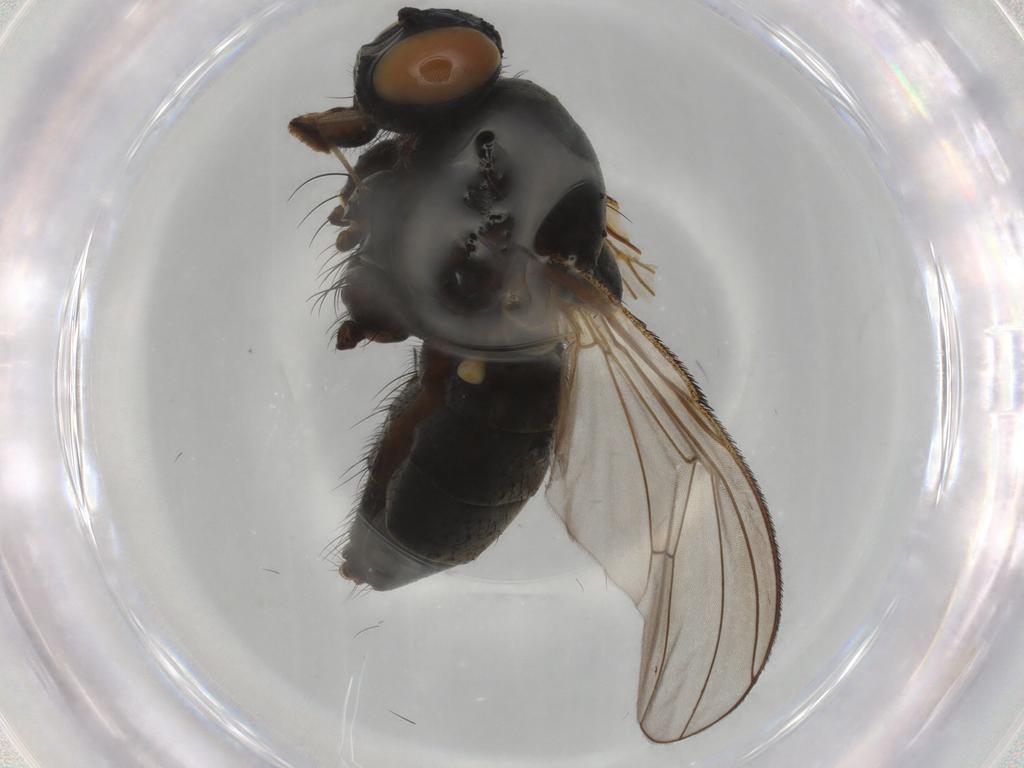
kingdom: Animalia
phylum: Arthropoda
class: Insecta
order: Diptera
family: Muscidae
